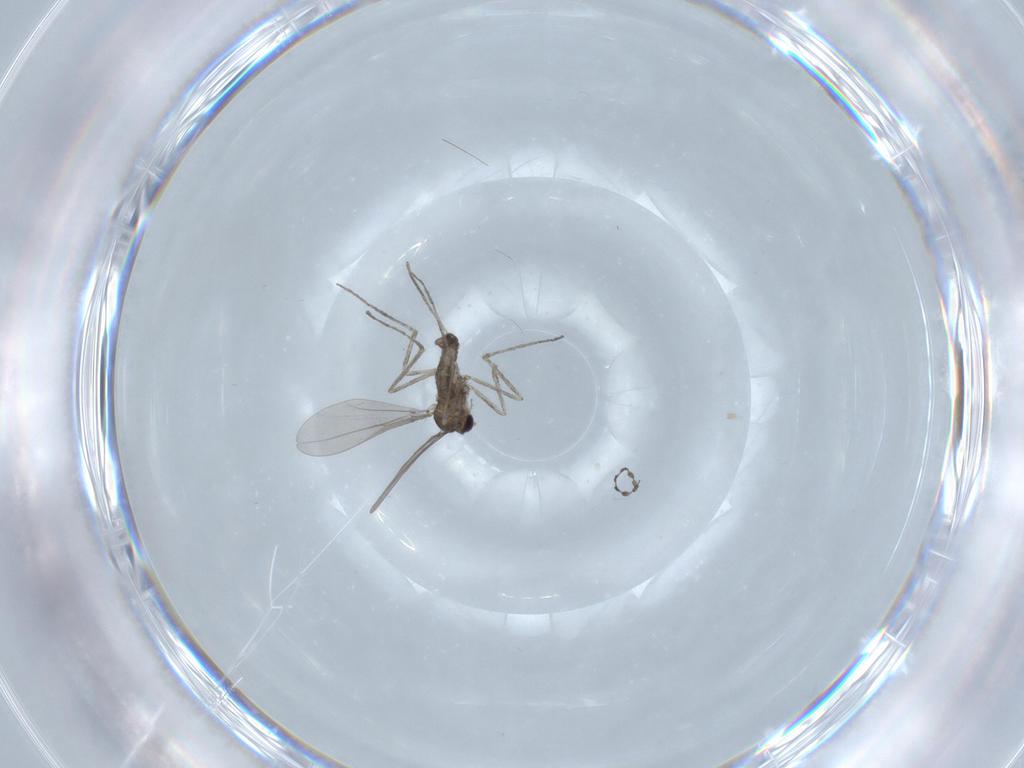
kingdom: Animalia
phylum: Arthropoda
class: Insecta
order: Diptera
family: Cecidomyiidae
